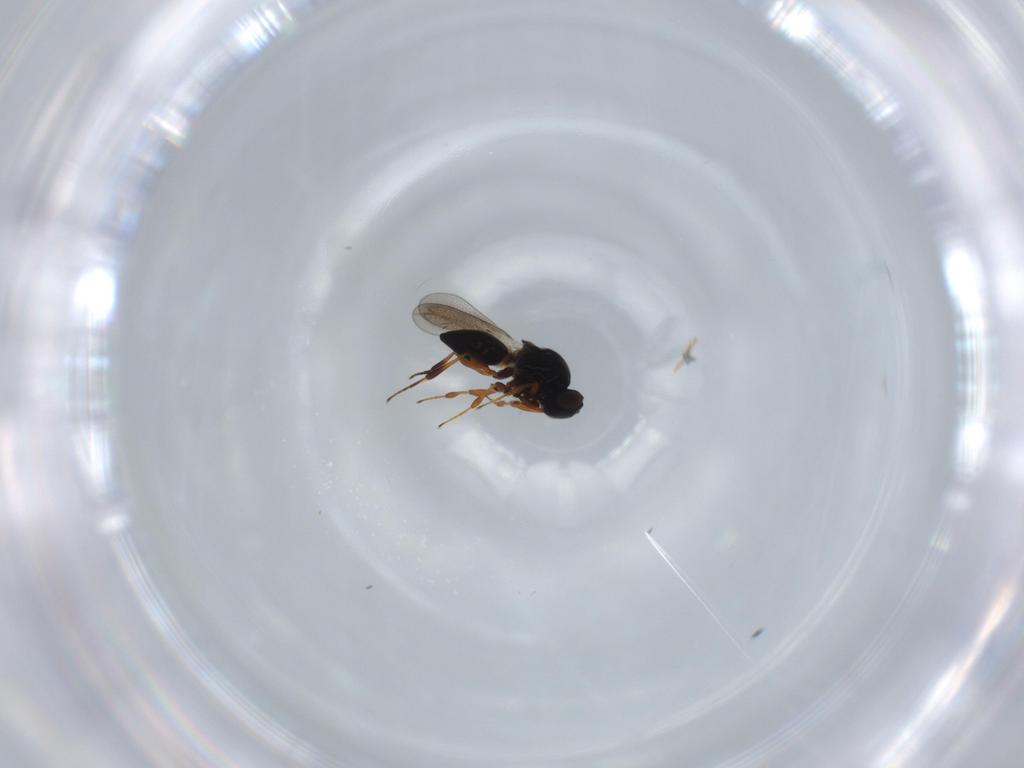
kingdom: Animalia
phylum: Arthropoda
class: Insecta
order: Hymenoptera
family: Platygastridae
